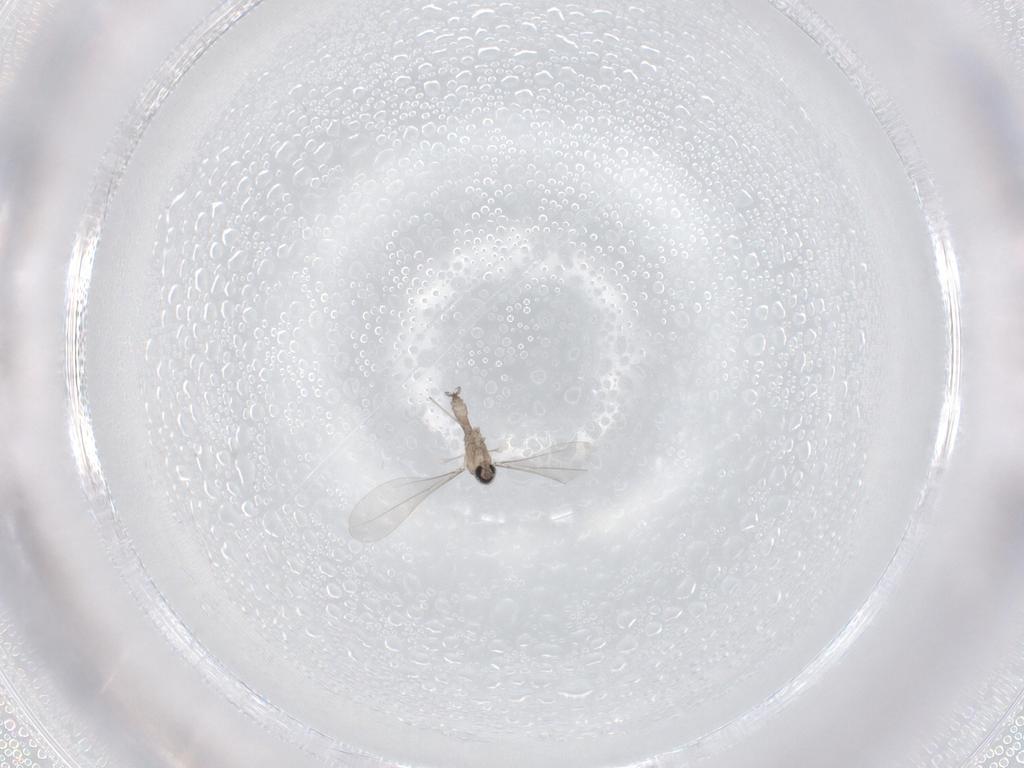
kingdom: Animalia
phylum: Arthropoda
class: Insecta
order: Diptera
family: Cecidomyiidae
